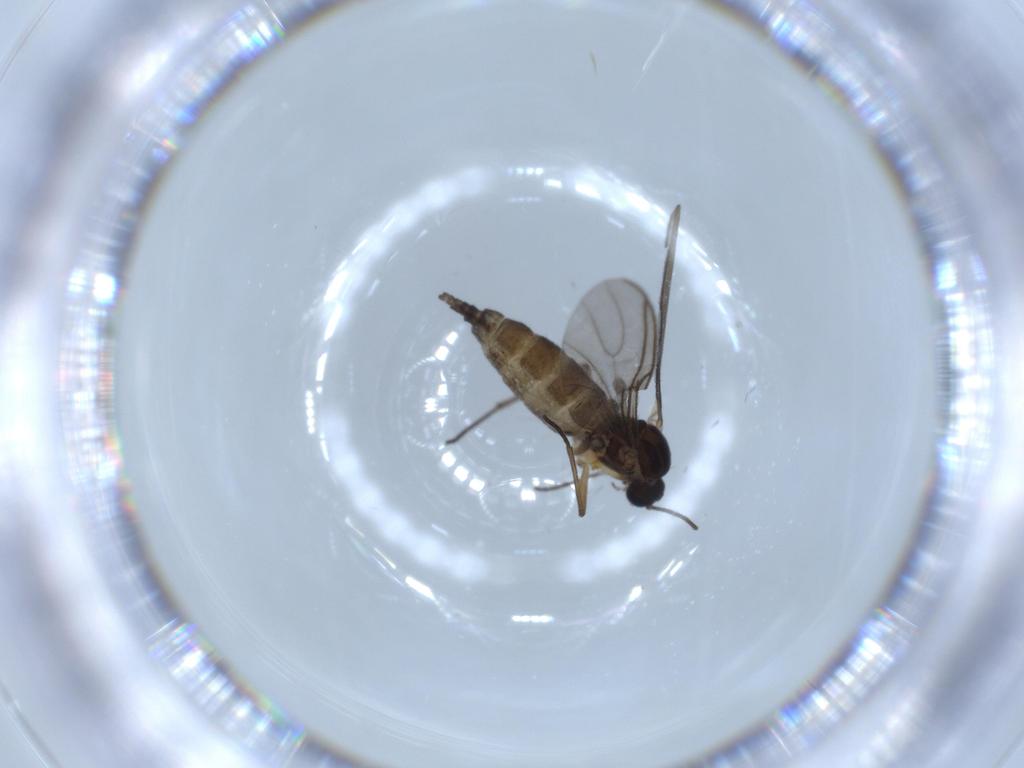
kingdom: Animalia
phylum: Arthropoda
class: Insecta
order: Diptera
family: Sciaridae
